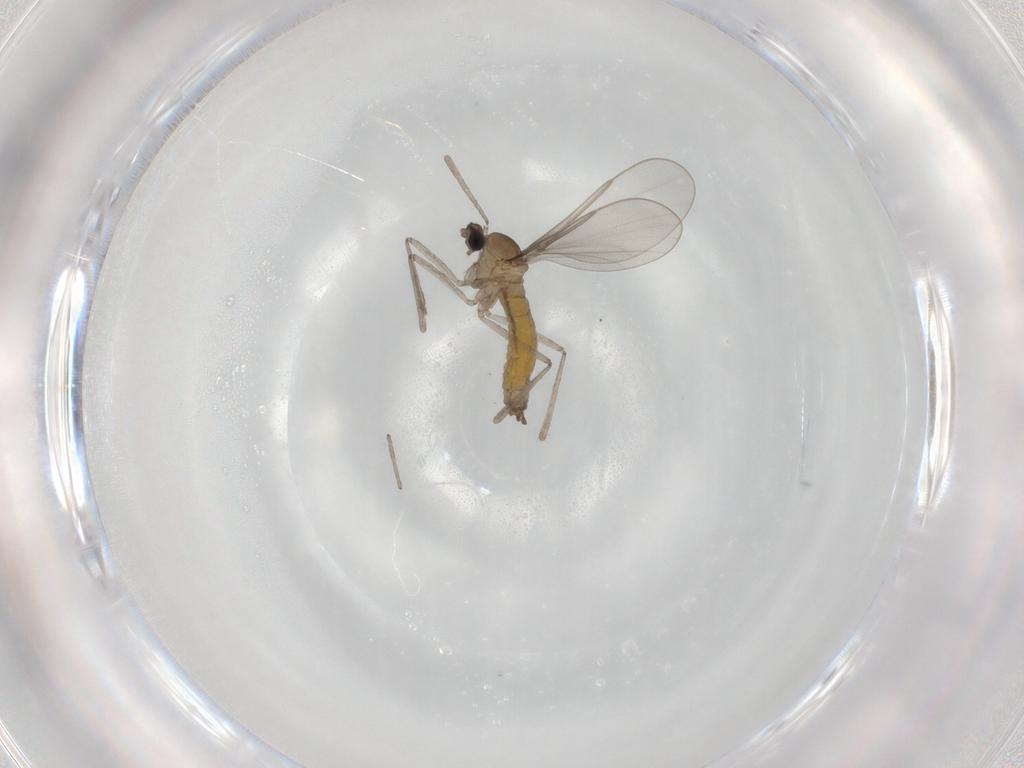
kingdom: Animalia
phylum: Arthropoda
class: Insecta
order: Diptera
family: Cecidomyiidae
